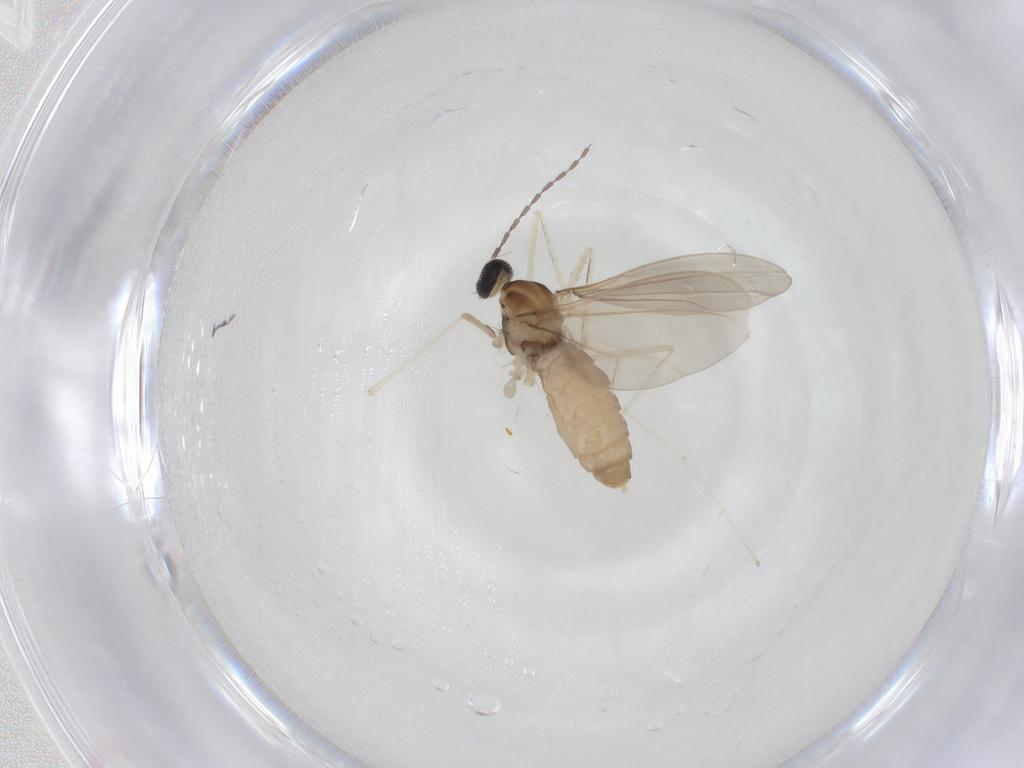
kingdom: Animalia
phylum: Arthropoda
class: Insecta
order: Diptera
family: Cecidomyiidae
